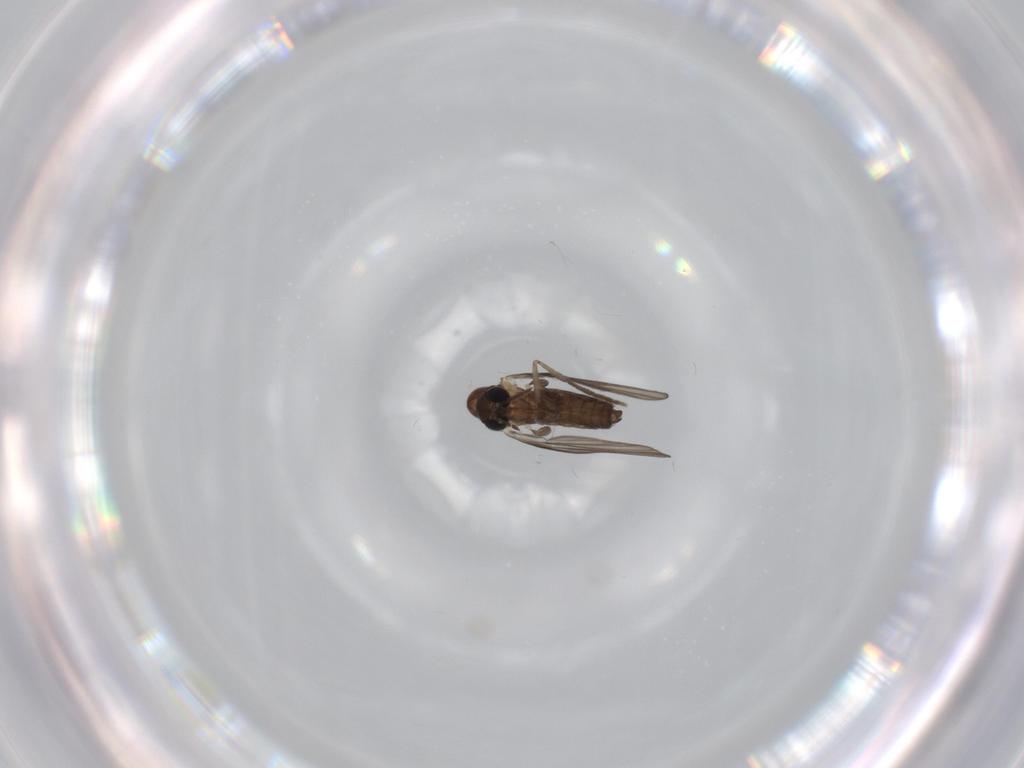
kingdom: Animalia
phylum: Arthropoda
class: Insecta
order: Diptera
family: Psychodidae
